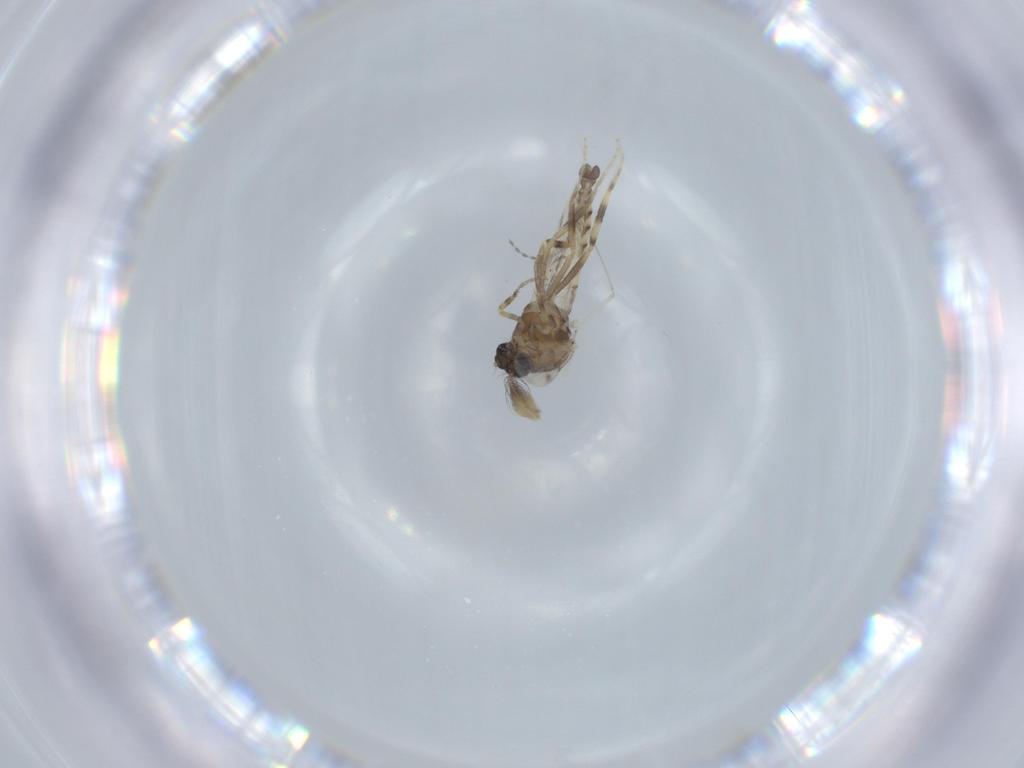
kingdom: Animalia
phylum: Arthropoda
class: Insecta
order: Diptera
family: Ceratopogonidae
